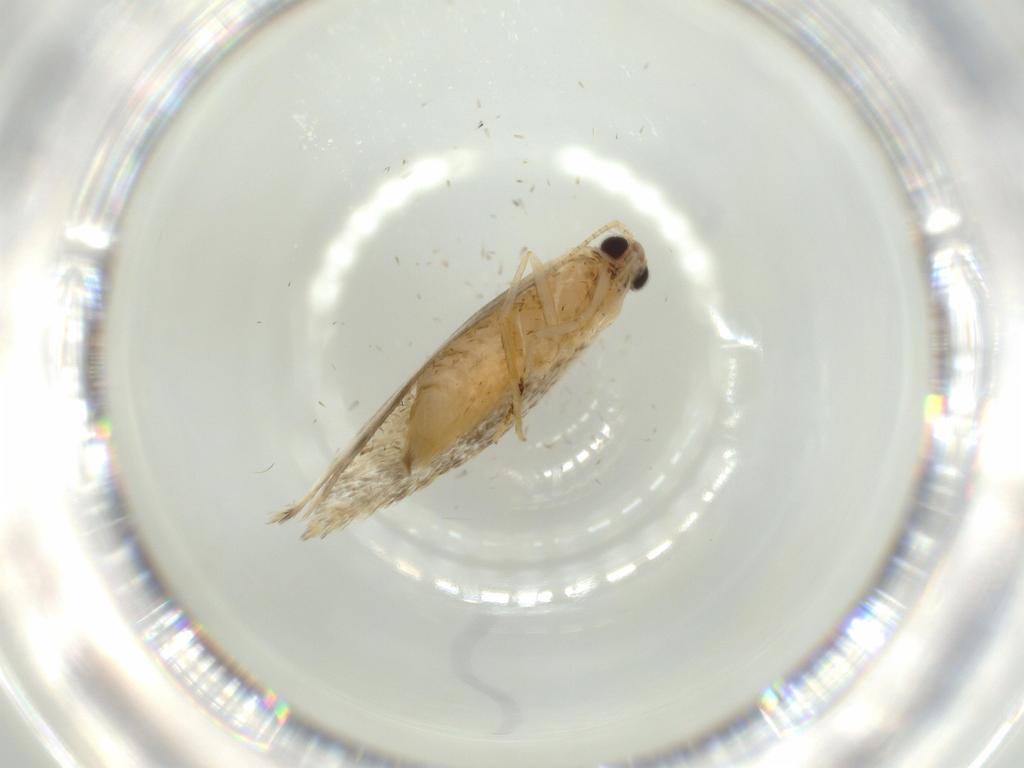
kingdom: Animalia
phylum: Arthropoda
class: Insecta
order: Lepidoptera
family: Tineidae
